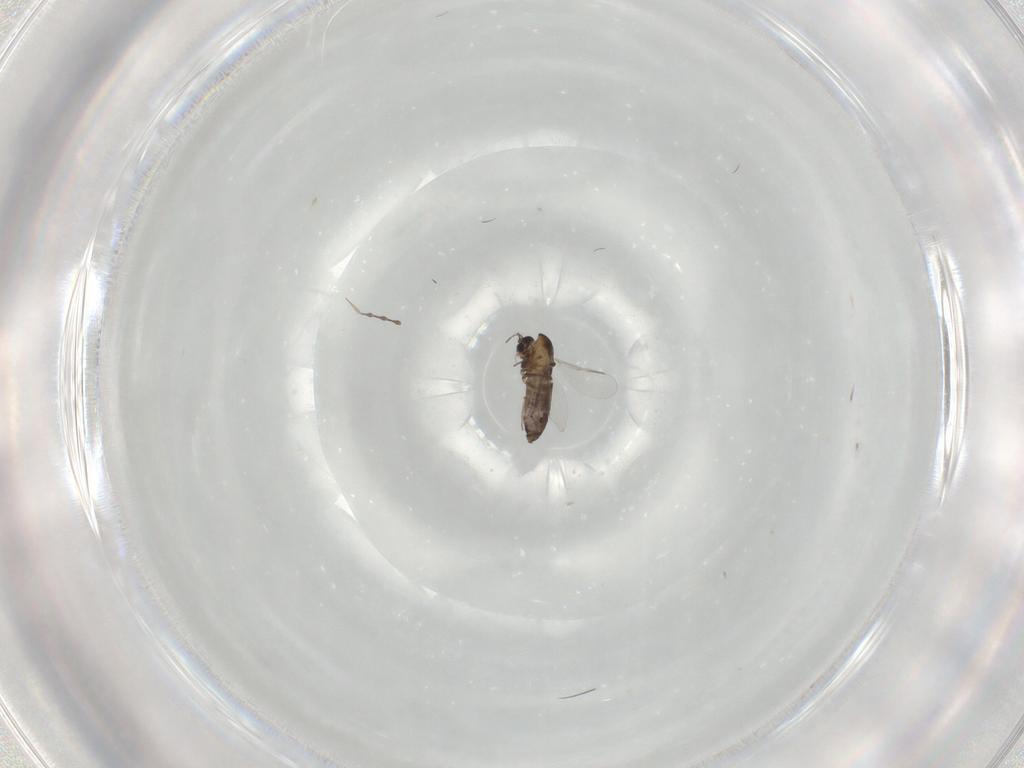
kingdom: Animalia
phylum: Arthropoda
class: Insecta
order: Diptera
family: Chironomidae
